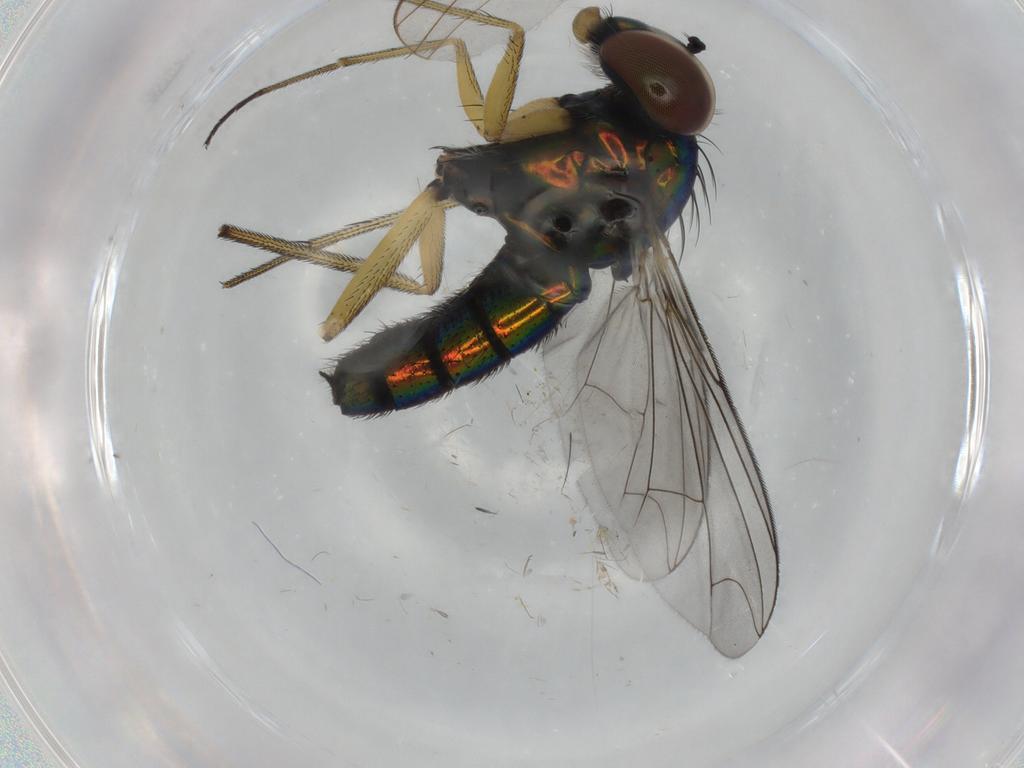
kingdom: Animalia
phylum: Arthropoda
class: Insecta
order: Diptera
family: Dolichopodidae
